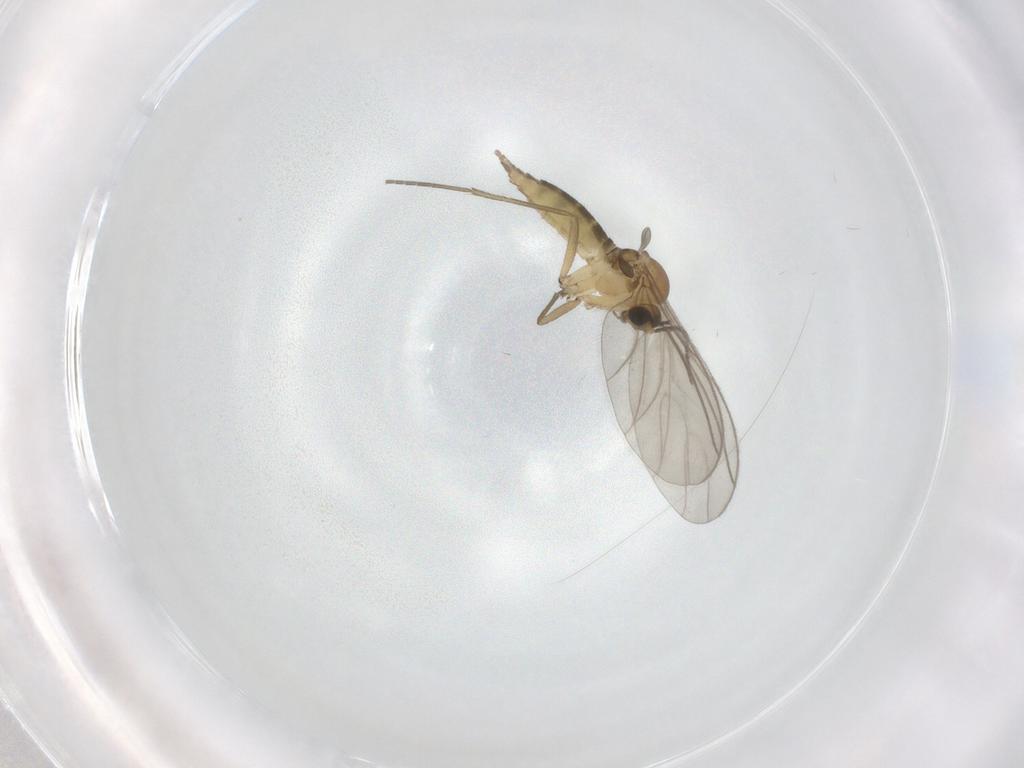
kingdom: Animalia
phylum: Arthropoda
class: Insecta
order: Diptera
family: Sciaridae
